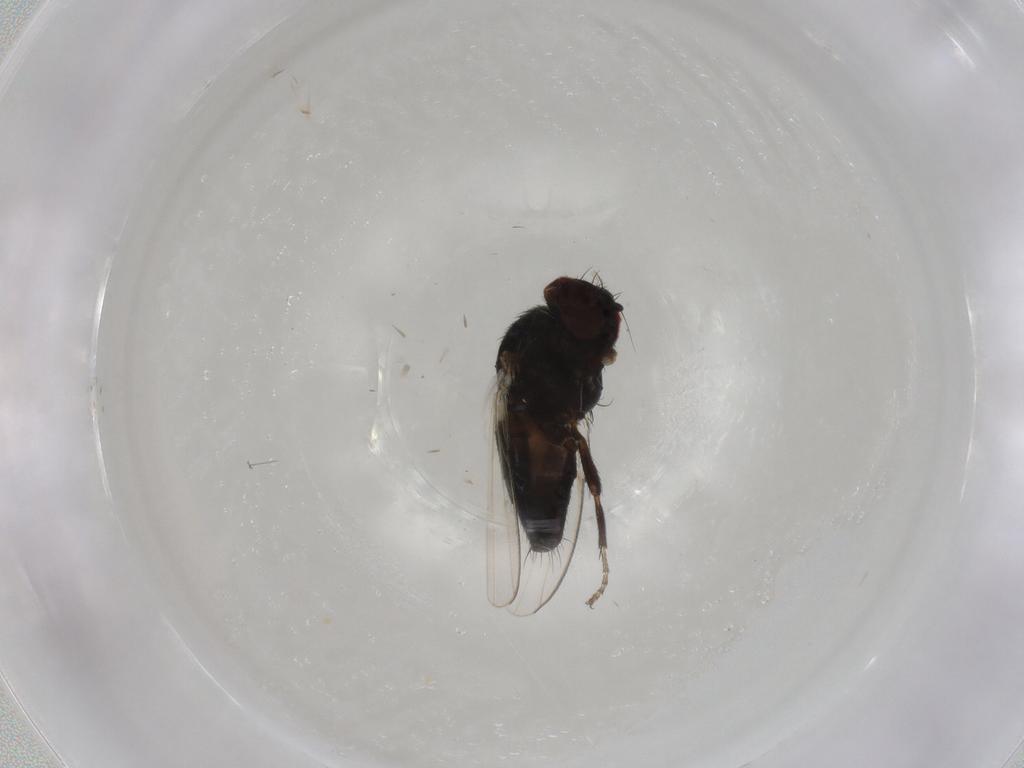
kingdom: Animalia
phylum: Arthropoda
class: Insecta
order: Diptera
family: Milichiidae
